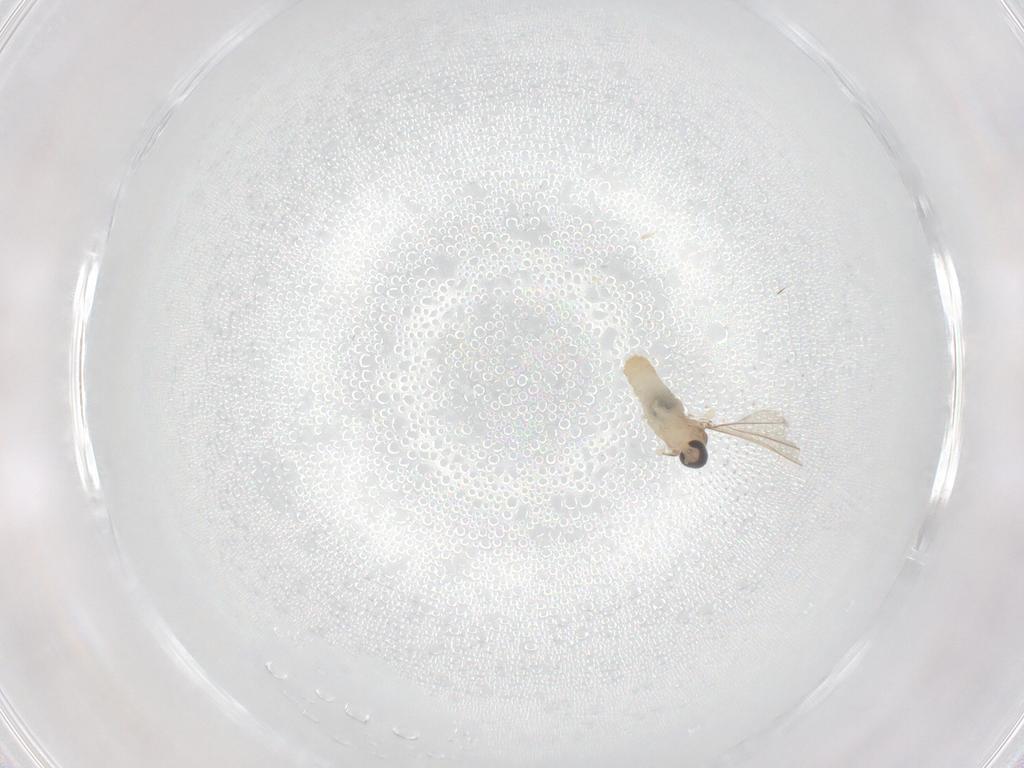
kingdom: Animalia
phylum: Arthropoda
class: Insecta
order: Diptera
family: Cecidomyiidae
